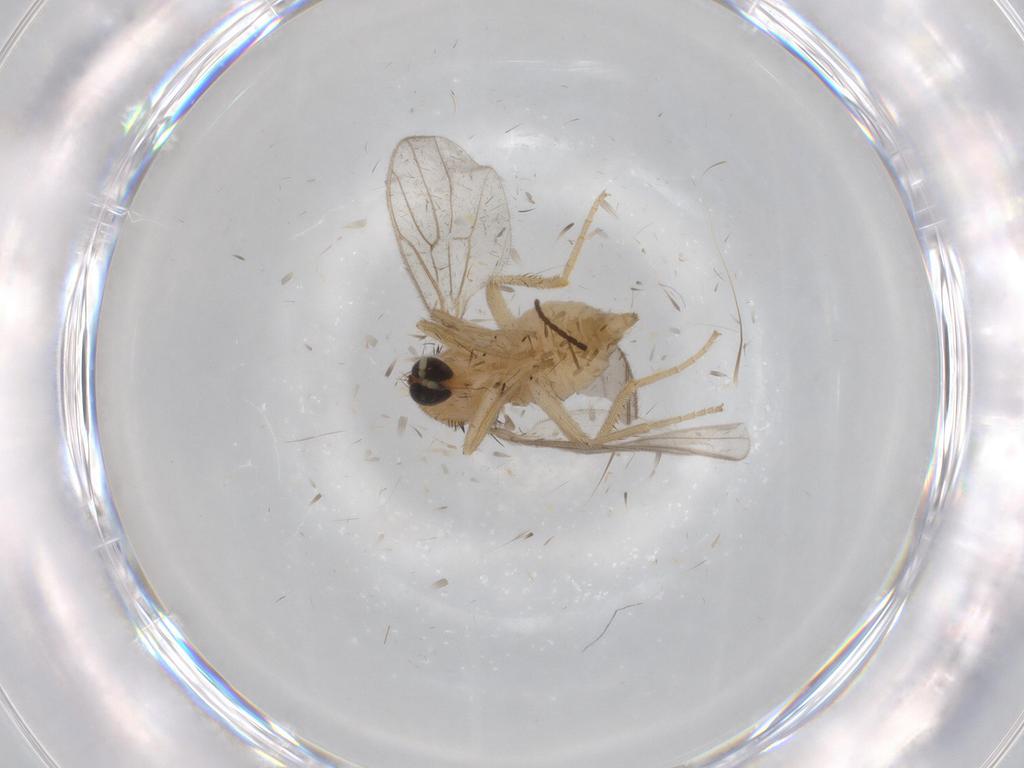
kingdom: Animalia
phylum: Arthropoda
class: Insecta
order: Diptera
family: Hybotidae
